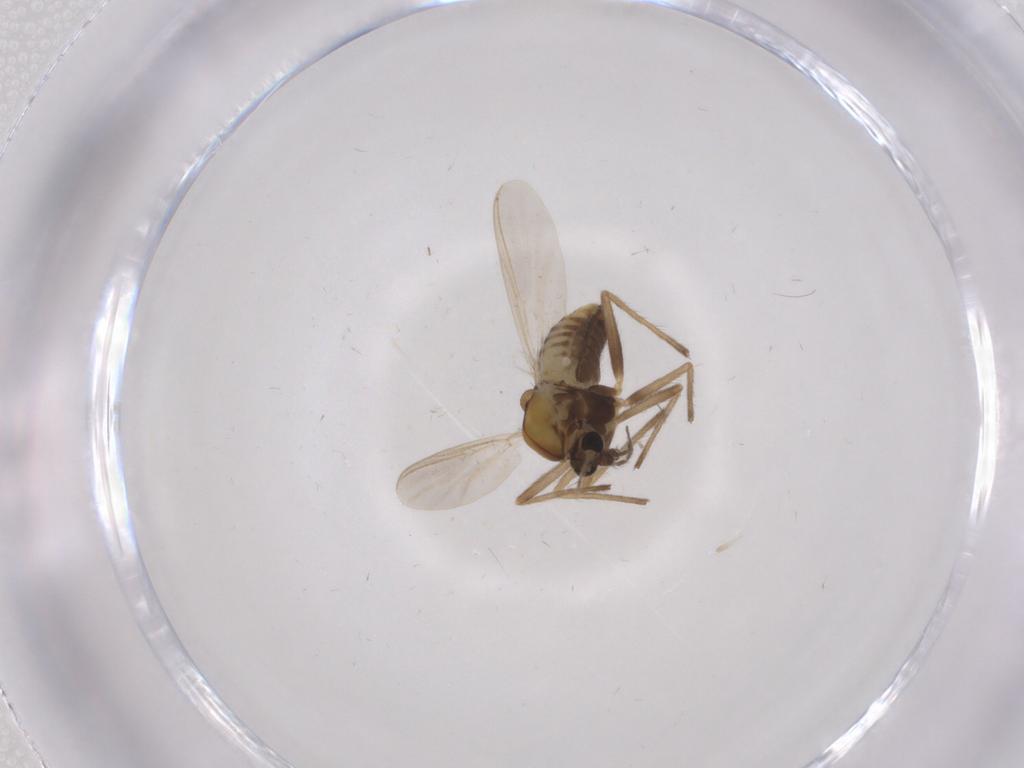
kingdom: Animalia
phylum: Arthropoda
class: Insecta
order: Diptera
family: Chironomidae
